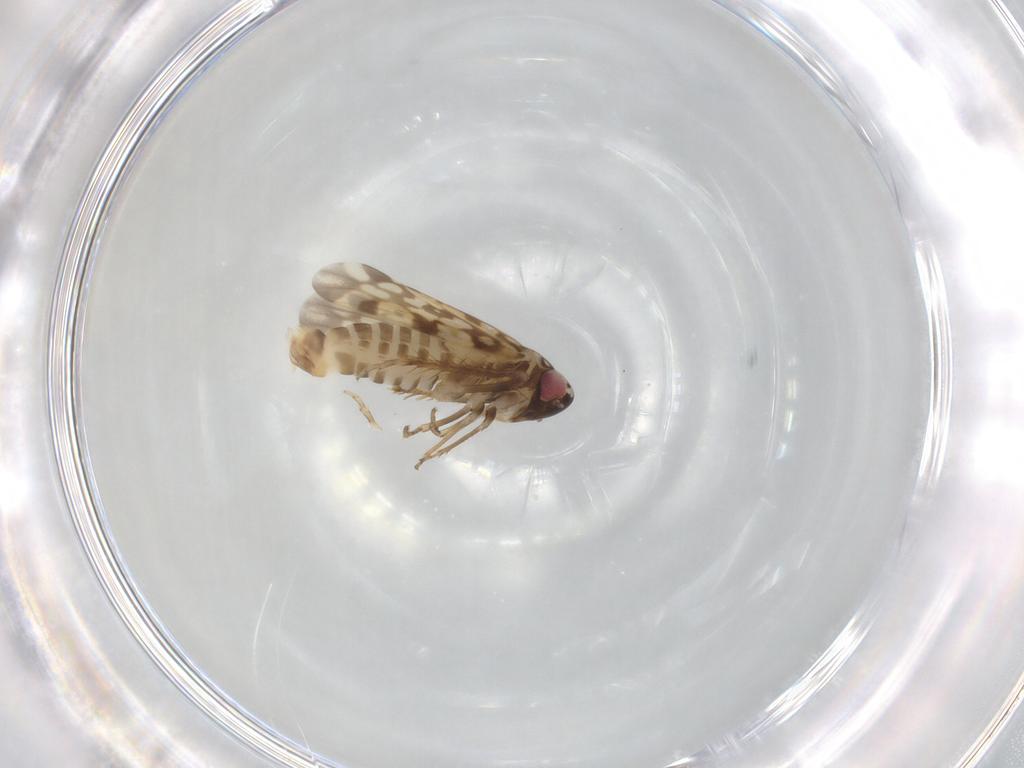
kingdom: Animalia
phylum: Arthropoda
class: Insecta
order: Hemiptera
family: Cicadellidae
